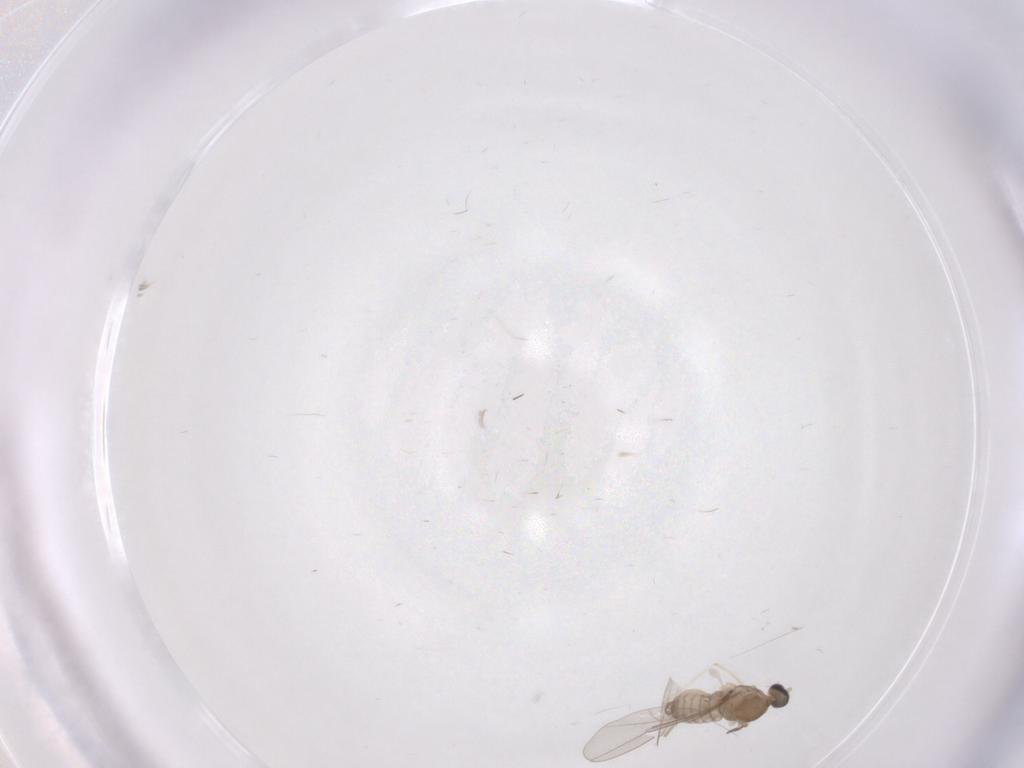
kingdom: Animalia
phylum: Arthropoda
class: Insecta
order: Diptera
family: Cecidomyiidae
